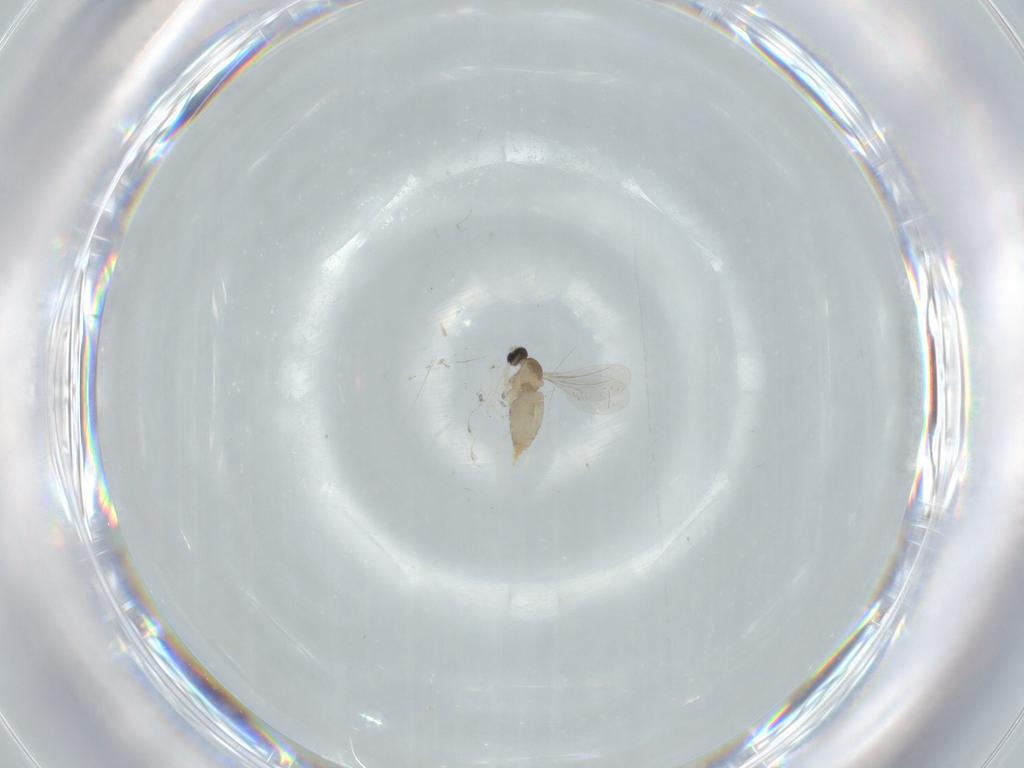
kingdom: Animalia
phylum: Arthropoda
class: Insecta
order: Diptera
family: Cecidomyiidae
